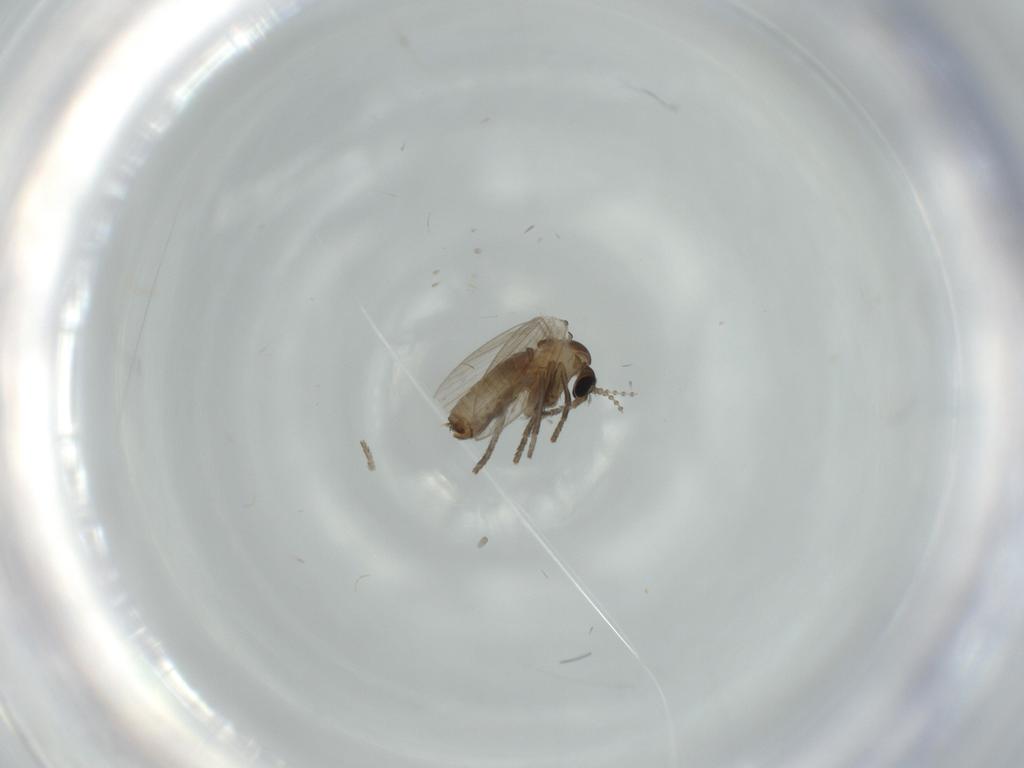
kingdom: Animalia
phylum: Arthropoda
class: Insecta
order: Diptera
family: Psychodidae
